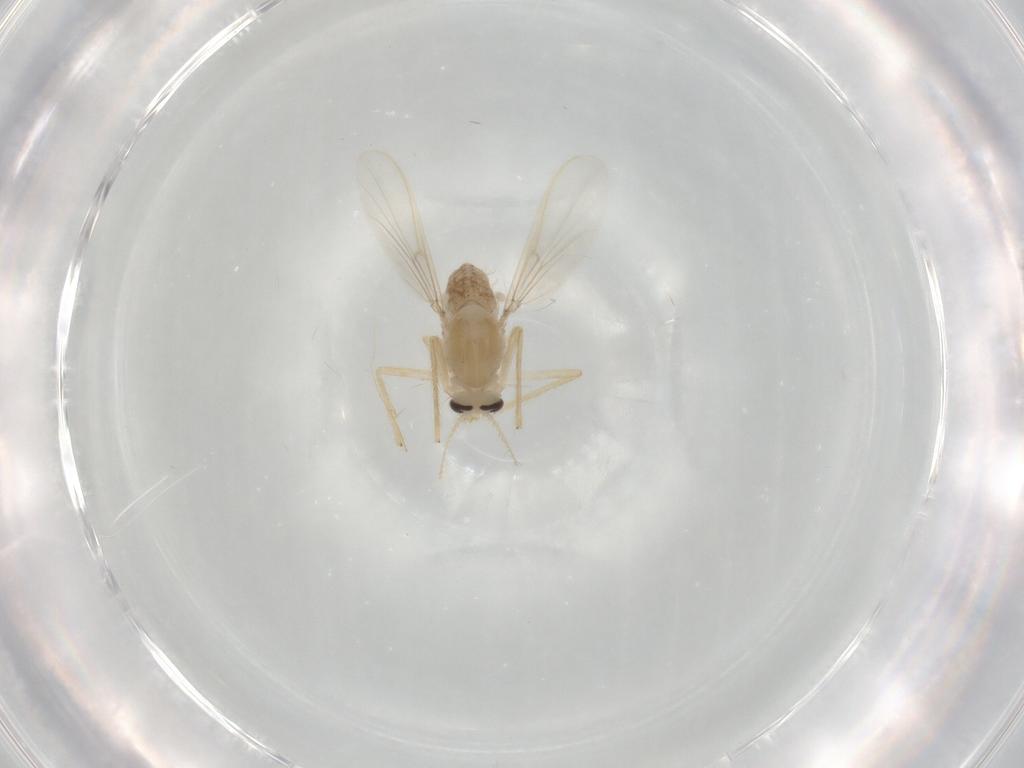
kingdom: Animalia
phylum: Arthropoda
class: Insecta
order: Diptera
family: Chironomidae
